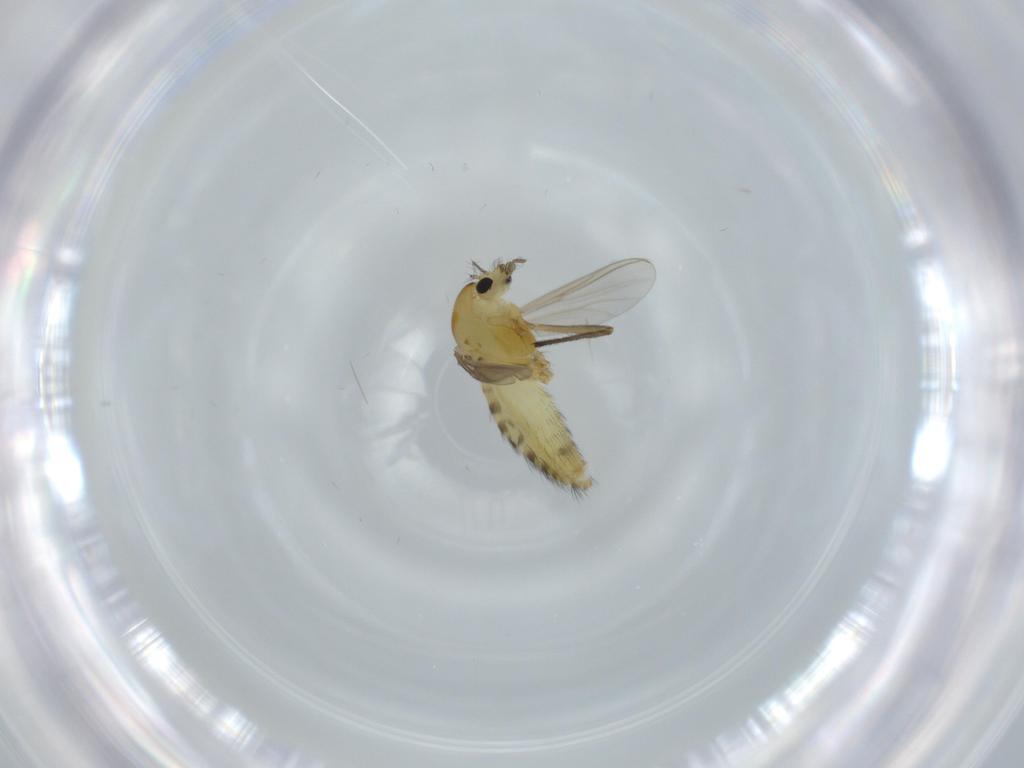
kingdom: Animalia
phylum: Arthropoda
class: Insecta
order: Diptera
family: Chironomidae
